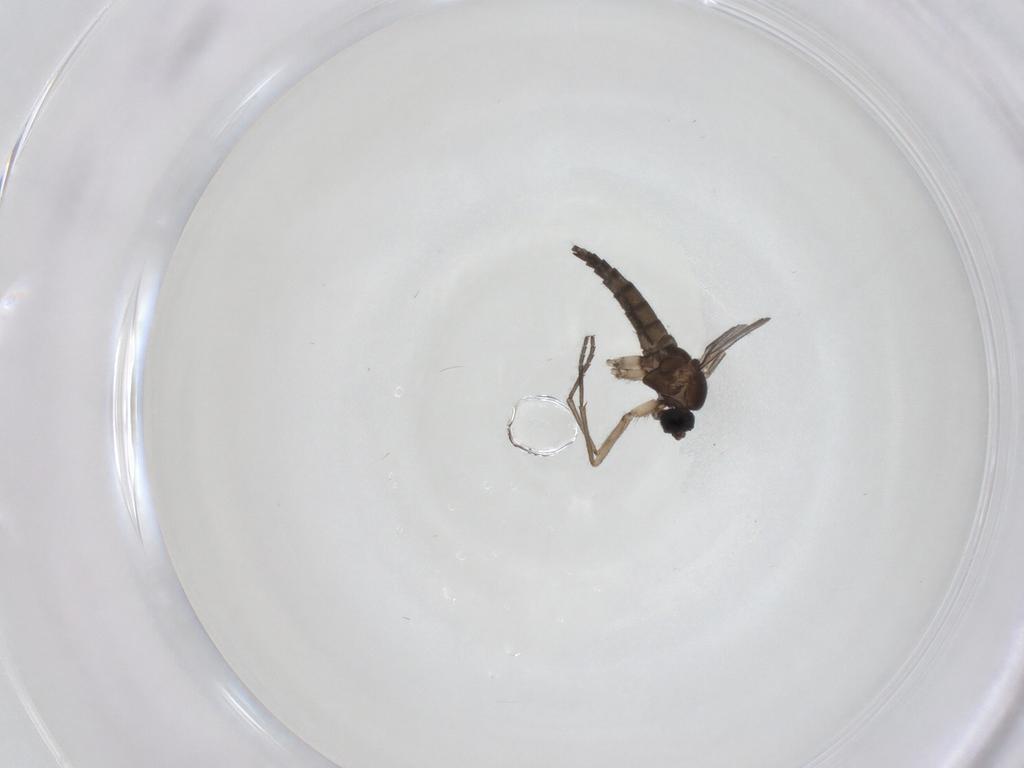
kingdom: Animalia
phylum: Arthropoda
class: Insecta
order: Diptera
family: Sciaridae
